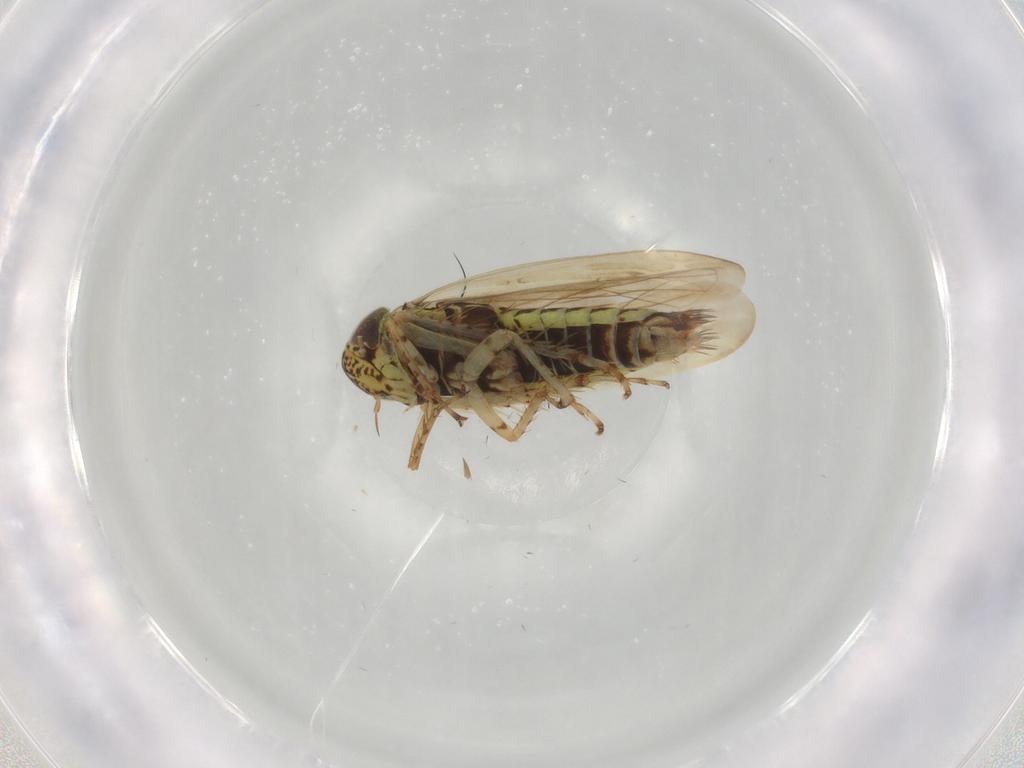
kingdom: Animalia
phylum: Arthropoda
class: Insecta
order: Hemiptera
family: Cicadellidae
